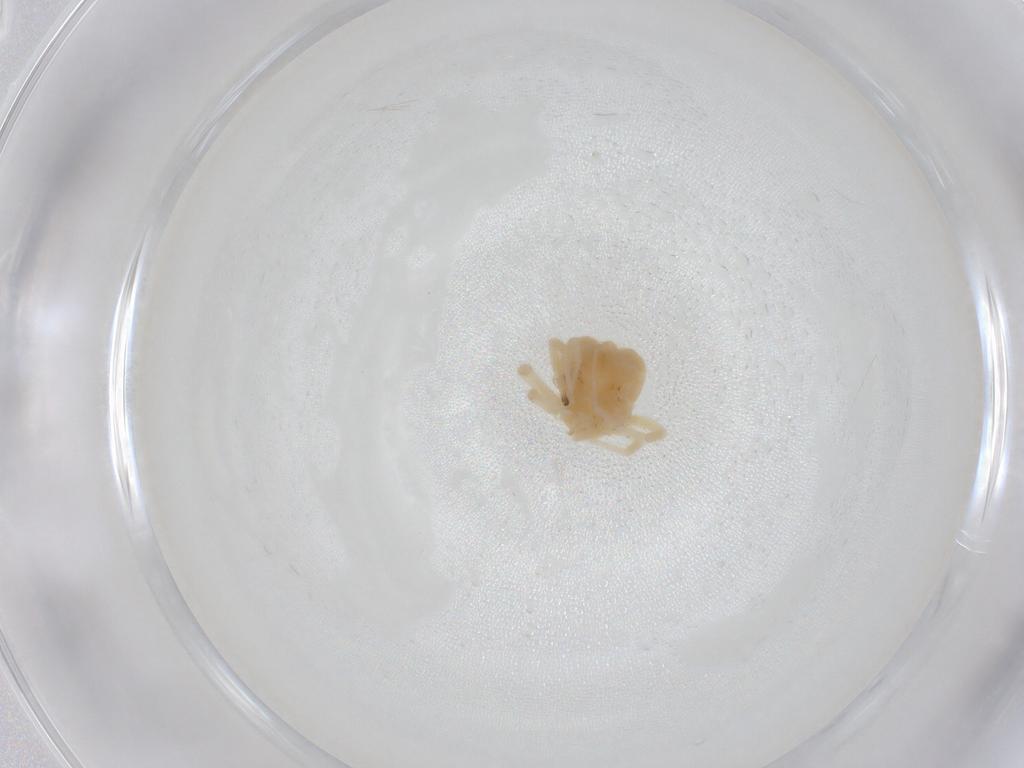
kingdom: Animalia
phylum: Arthropoda
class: Arachnida
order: Trombidiformes
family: Anystidae
